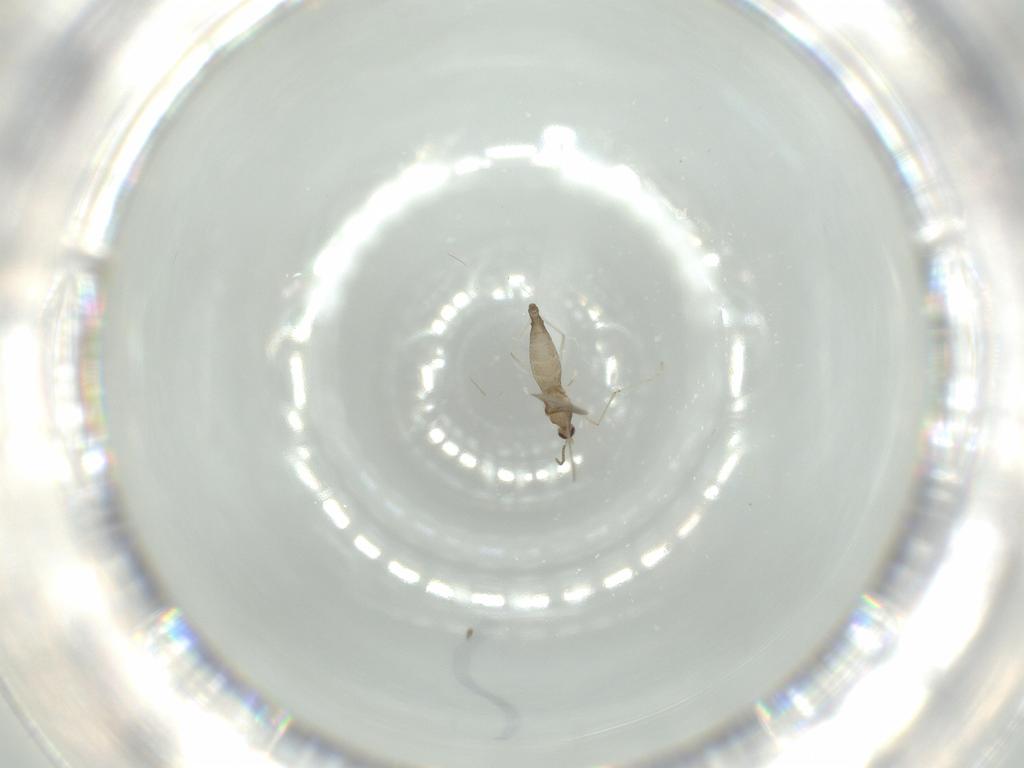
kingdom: Animalia
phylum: Arthropoda
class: Insecta
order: Diptera
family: Cecidomyiidae
